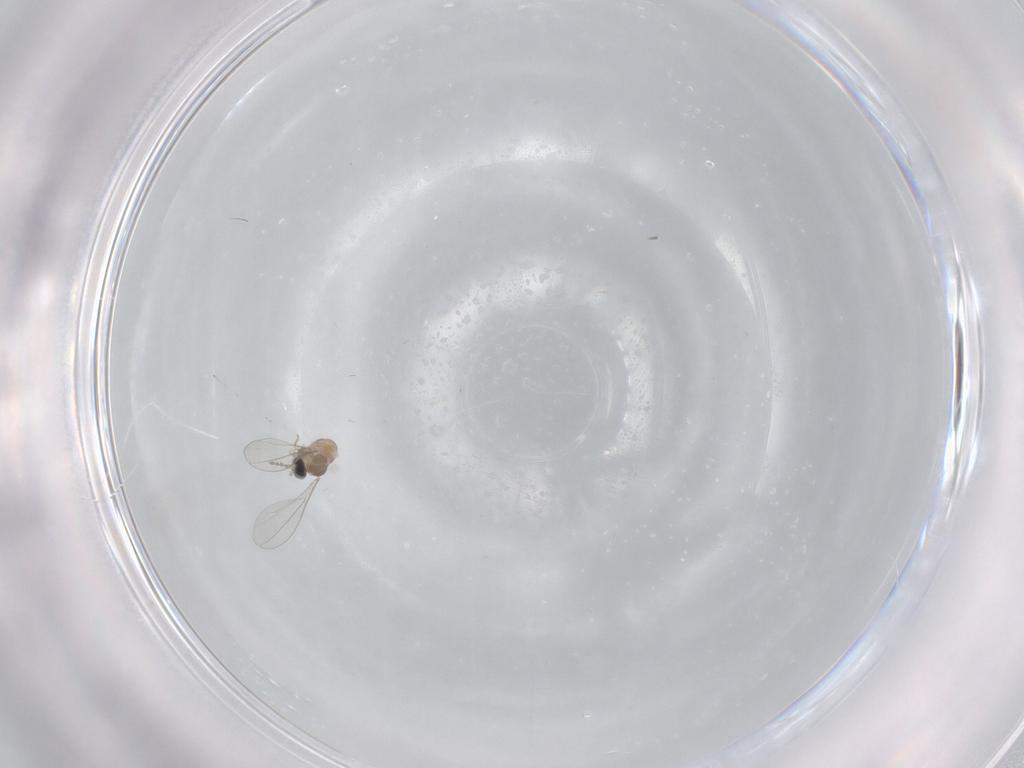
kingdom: Animalia
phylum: Arthropoda
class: Insecta
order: Diptera
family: Cecidomyiidae
